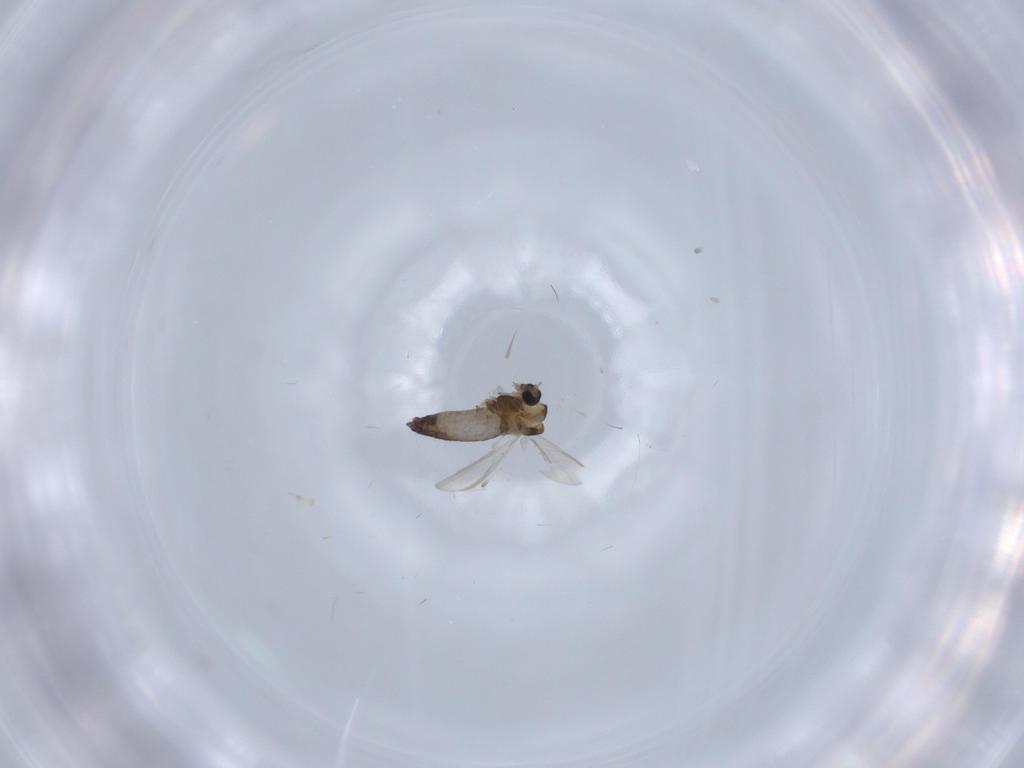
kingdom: Animalia
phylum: Arthropoda
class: Insecta
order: Diptera
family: Chironomidae
